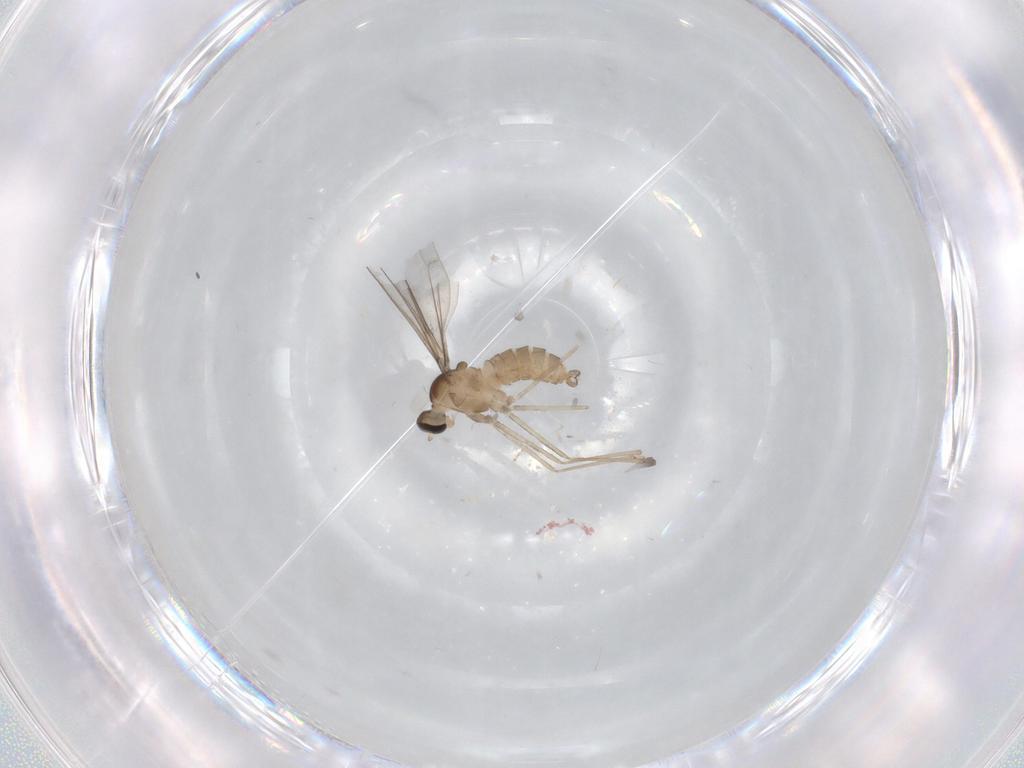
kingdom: Animalia
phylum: Arthropoda
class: Insecta
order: Diptera
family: Cecidomyiidae
